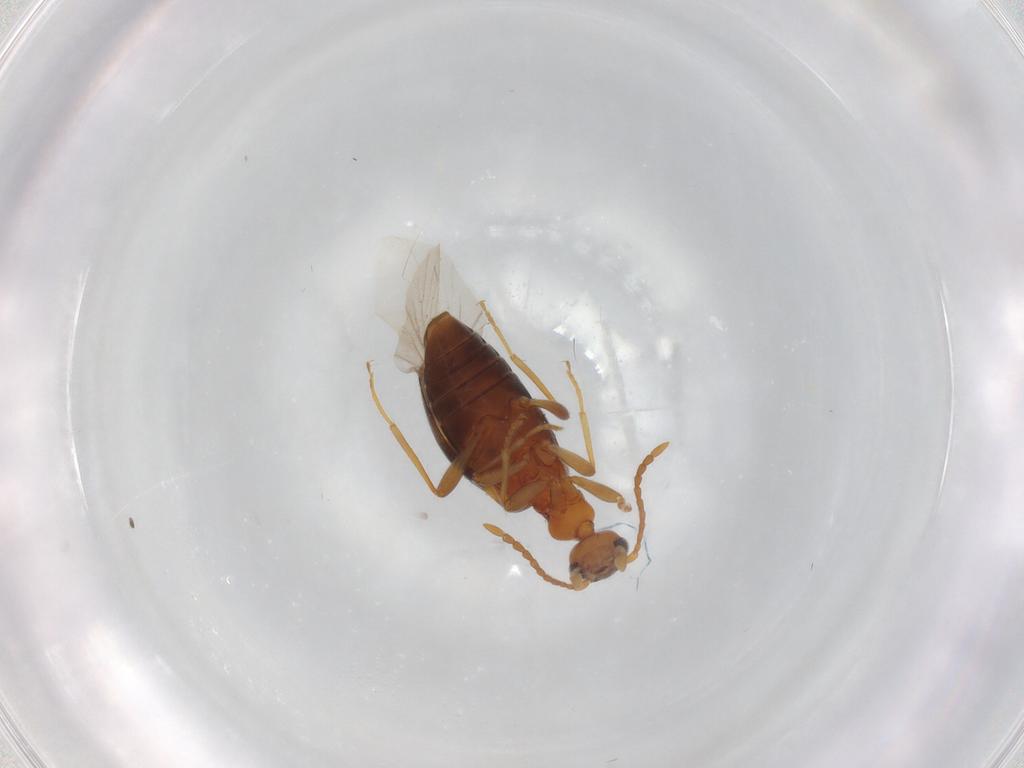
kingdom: Animalia
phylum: Arthropoda
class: Insecta
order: Coleoptera
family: Anthicidae
